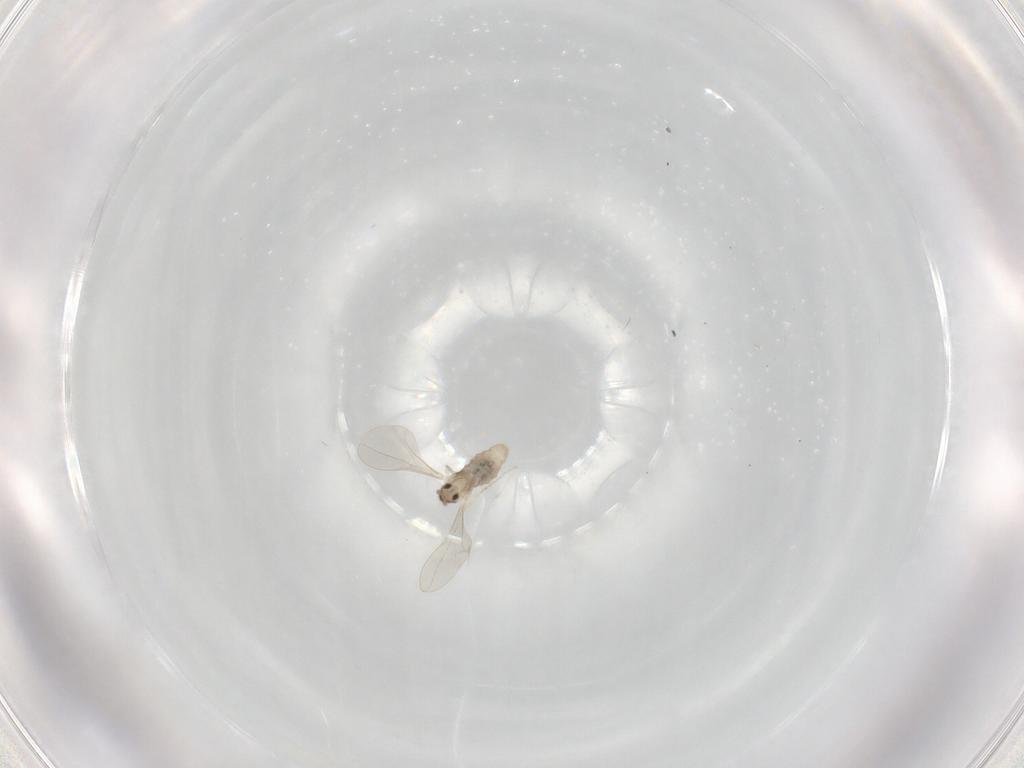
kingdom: Animalia
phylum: Arthropoda
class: Insecta
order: Diptera
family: Cecidomyiidae
